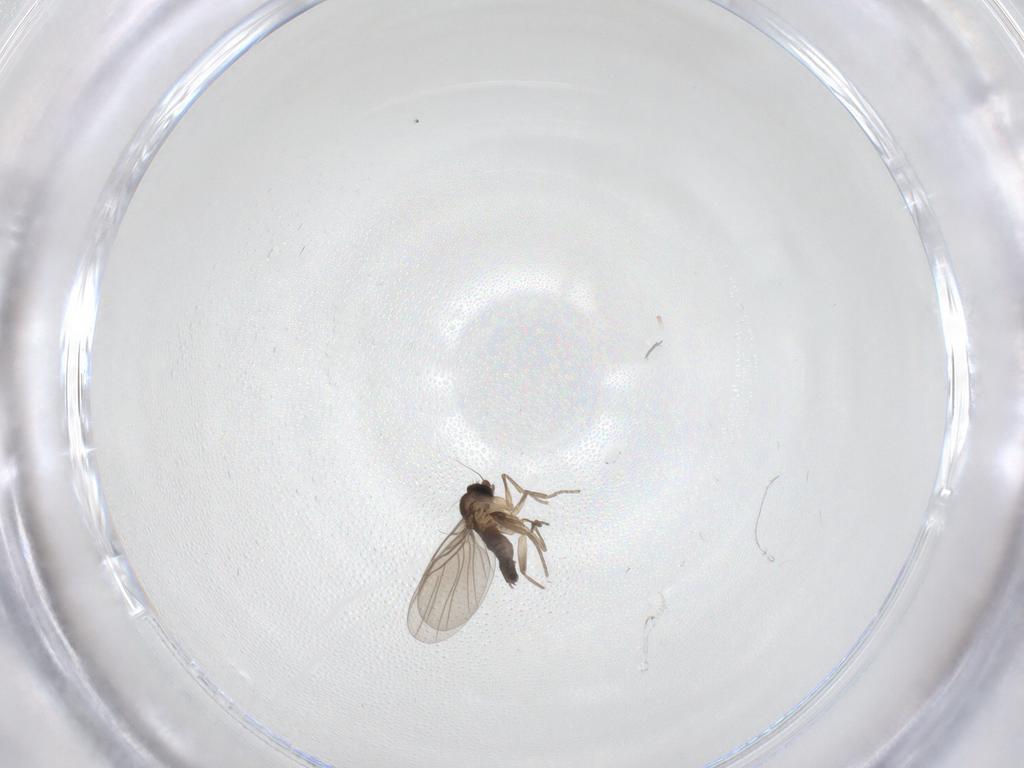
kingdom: Animalia
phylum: Arthropoda
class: Insecta
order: Diptera
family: Phoridae
